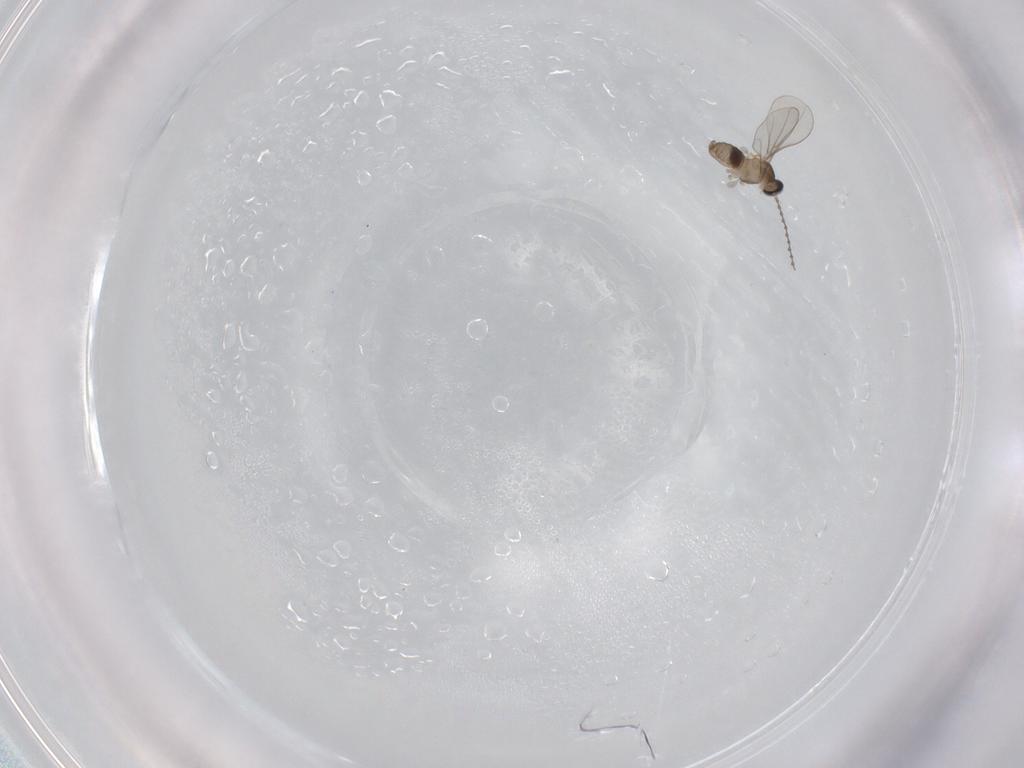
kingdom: Animalia
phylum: Arthropoda
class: Insecta
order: Diptera
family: Cecidomyiidae
